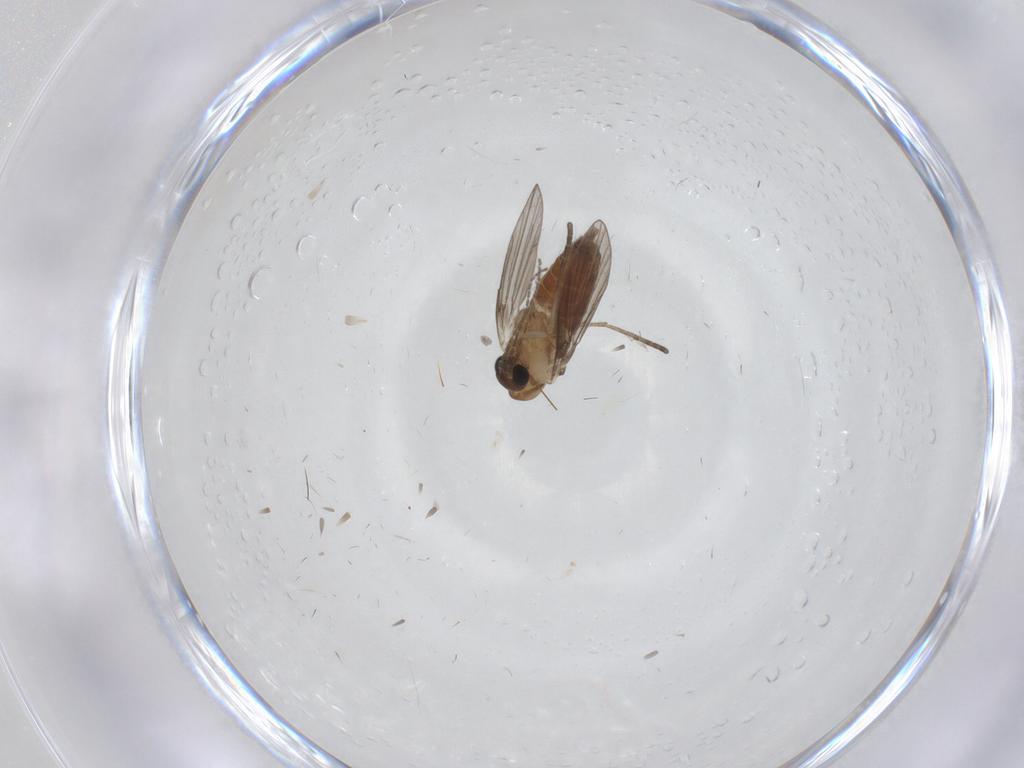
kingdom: Animalia
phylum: Arthropoda
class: Insecta
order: Diptera
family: Phoridae
